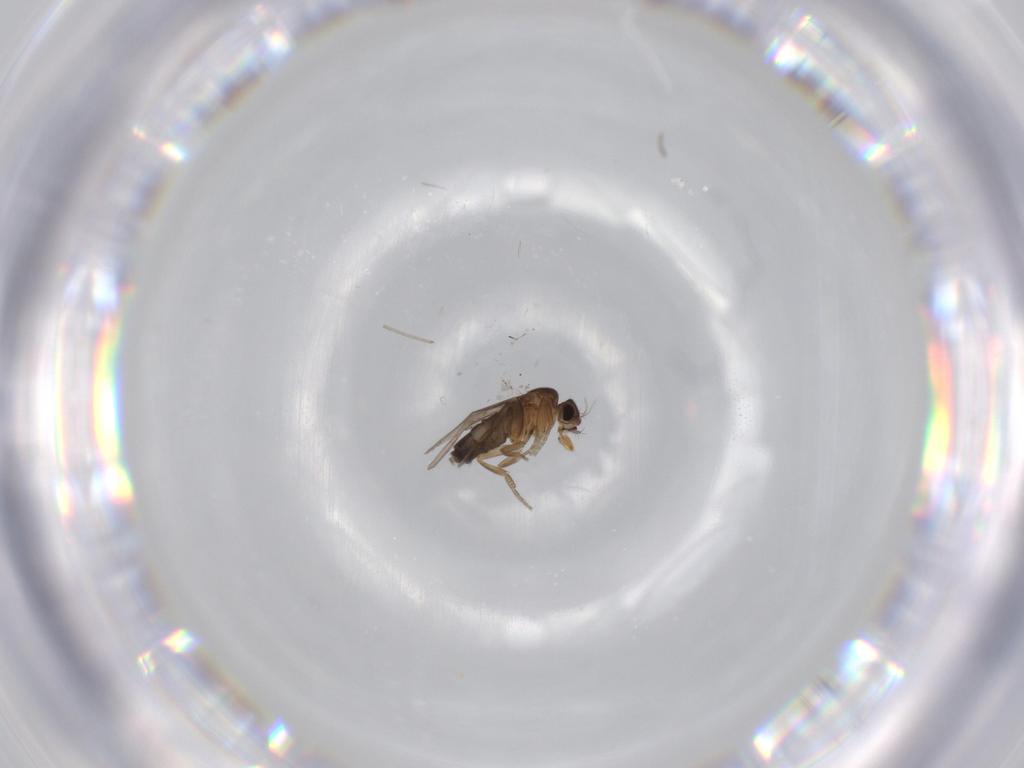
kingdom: Animalia
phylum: Arthropoda
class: Insecta
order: Diptera
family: Phoridae
